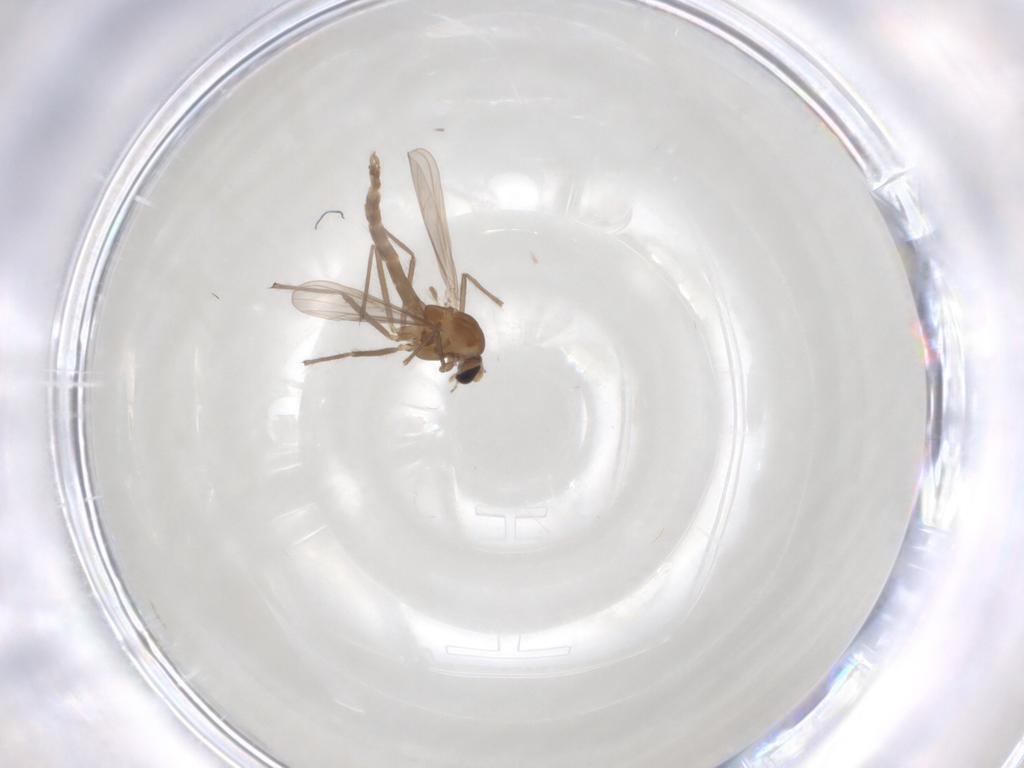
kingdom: Animalia
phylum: Arthropoda
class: Insecta
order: Diptera
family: Chironomidae
